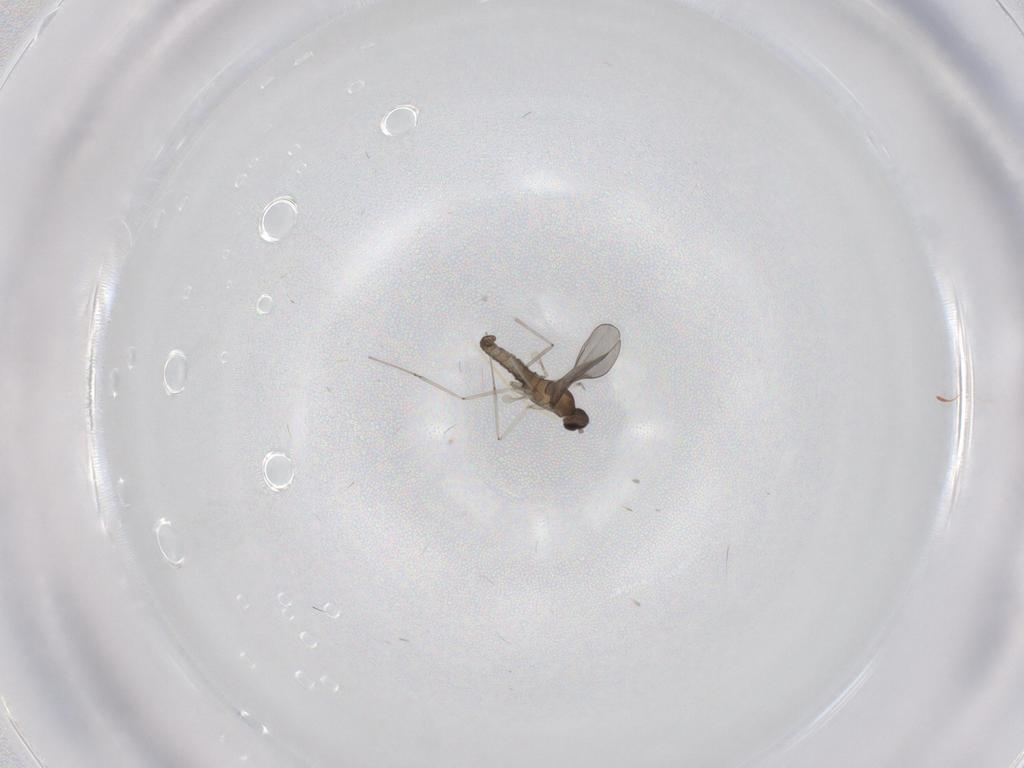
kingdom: Animalia
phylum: Arthropoda
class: Insecta
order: Diptera
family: Cecidomyiidae
